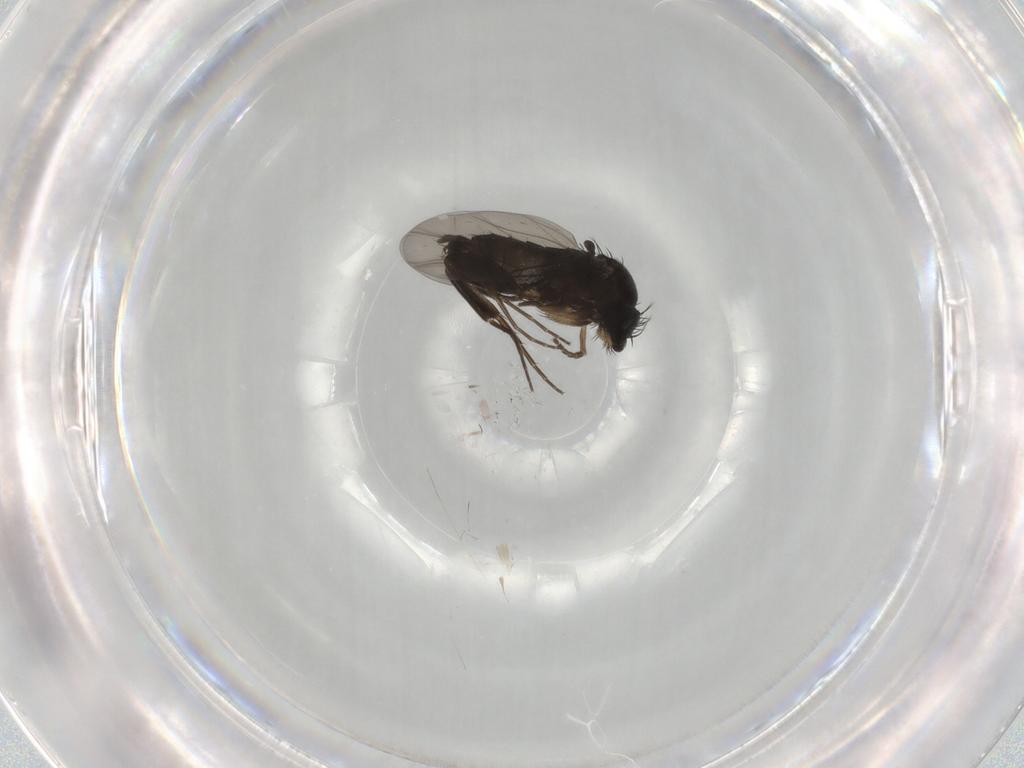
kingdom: Animalia
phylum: Arthropoda
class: Insecta
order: Diptera
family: Phoridae
